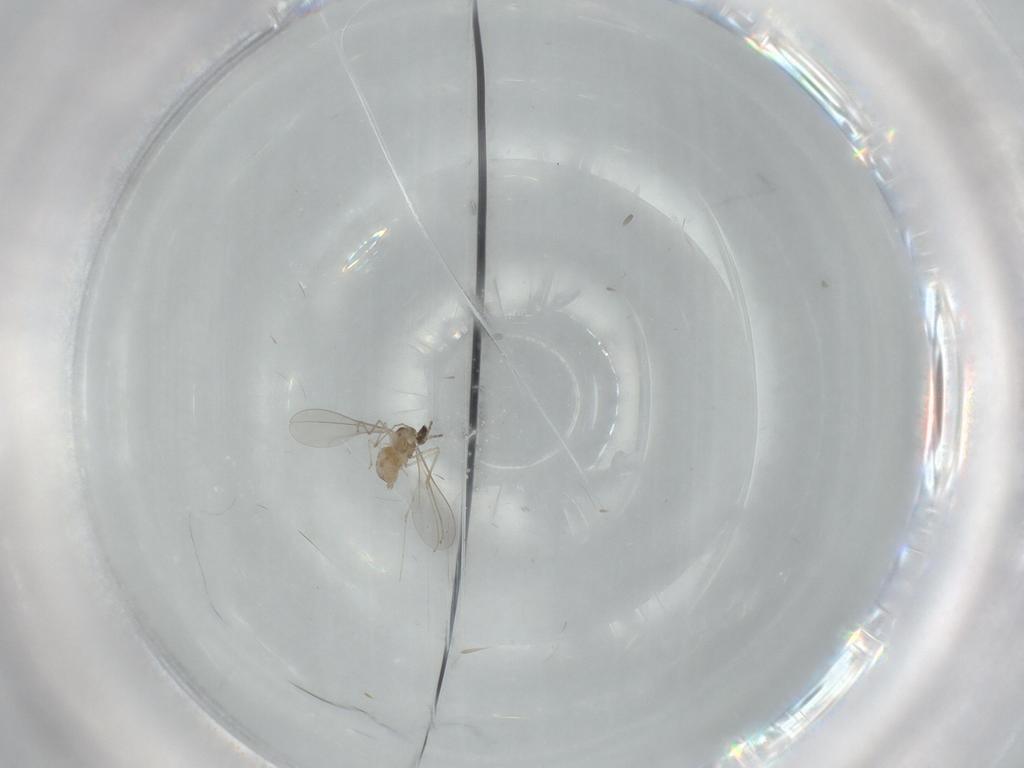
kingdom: Animalia
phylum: Arthropoda
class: Insecta
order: Diptera
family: Cecidomyiidae
